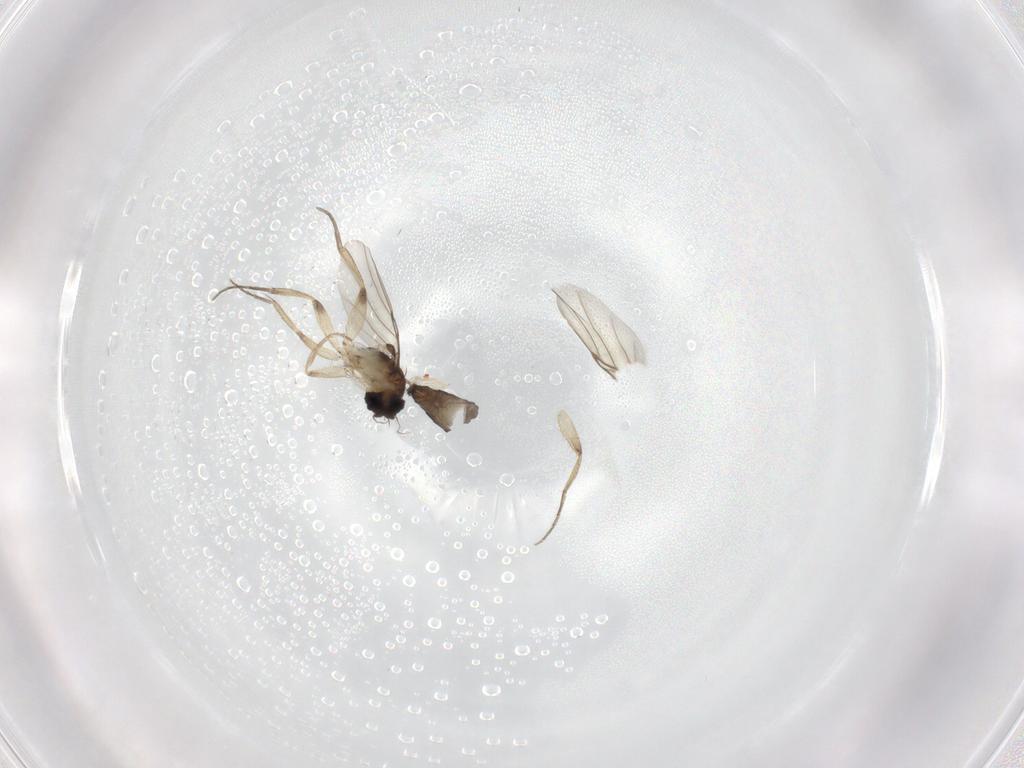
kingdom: Animalia
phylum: Arthropoda
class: Insecta
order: Diptera
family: Phoridae
